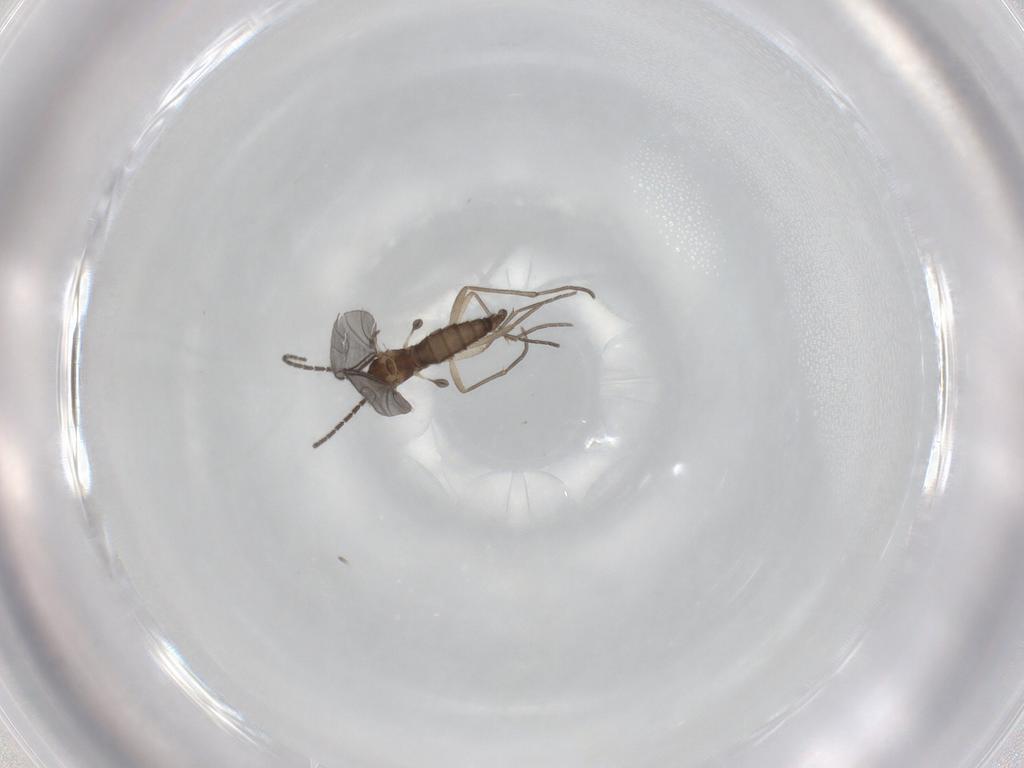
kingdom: Animalia
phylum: Arthropoda
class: Insecta
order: Diptera
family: Sciaridae
